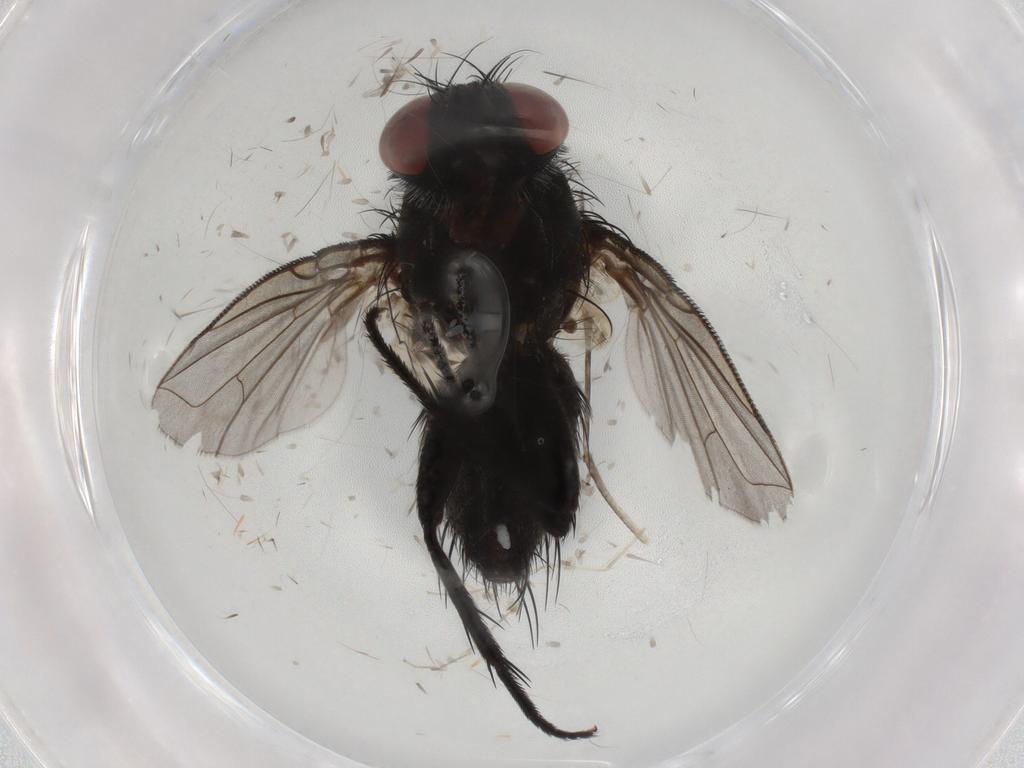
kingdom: Animalia
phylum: Arthropoda
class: Insecta
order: Diptera
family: Tachinidae
